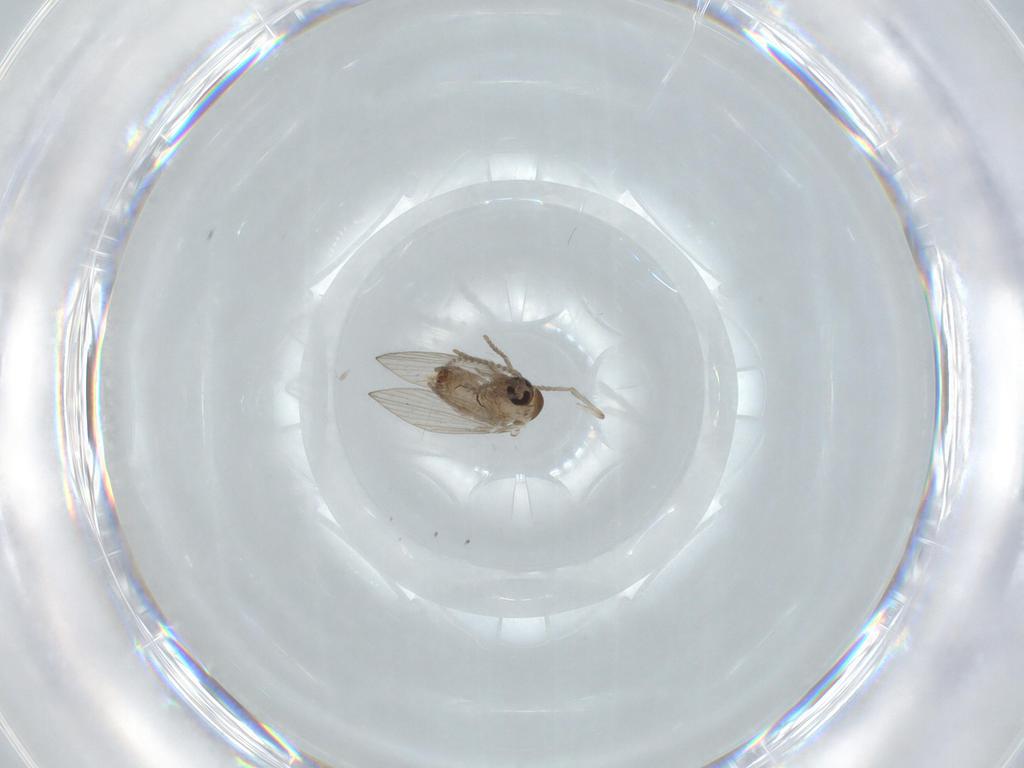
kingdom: Animalia
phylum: Arthropoda
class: Insecta
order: Diptera
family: Psychodidae
